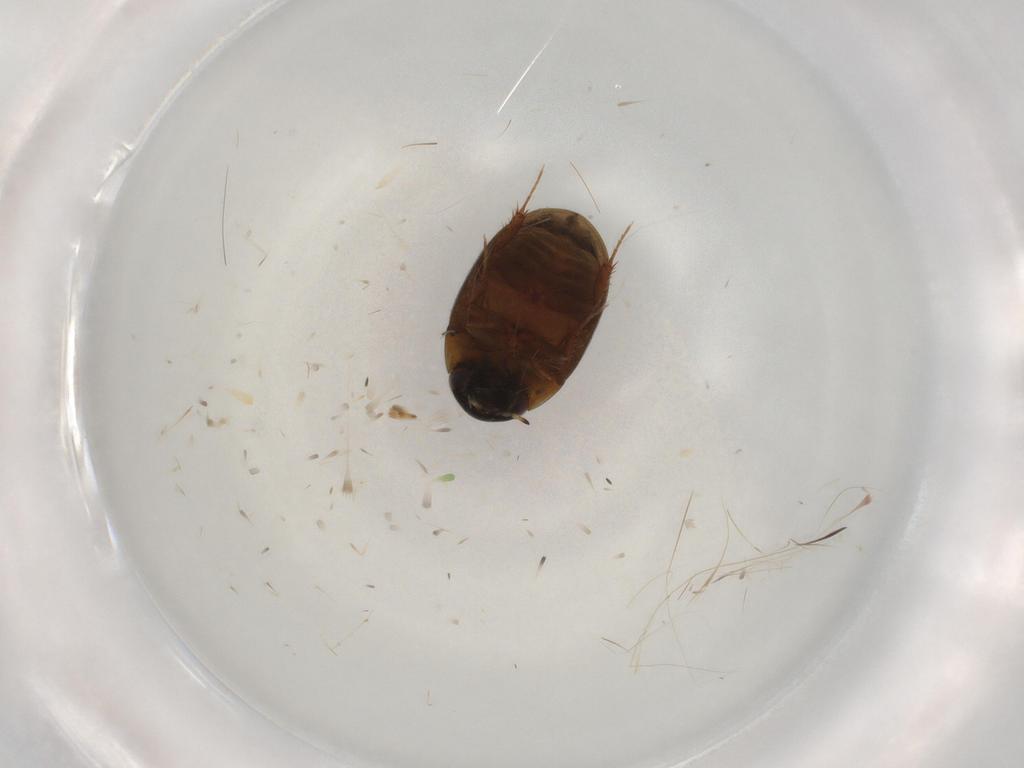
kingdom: Animalia
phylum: Arthropoda
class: Insecta
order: Coleoptera
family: Hydrophilidae
